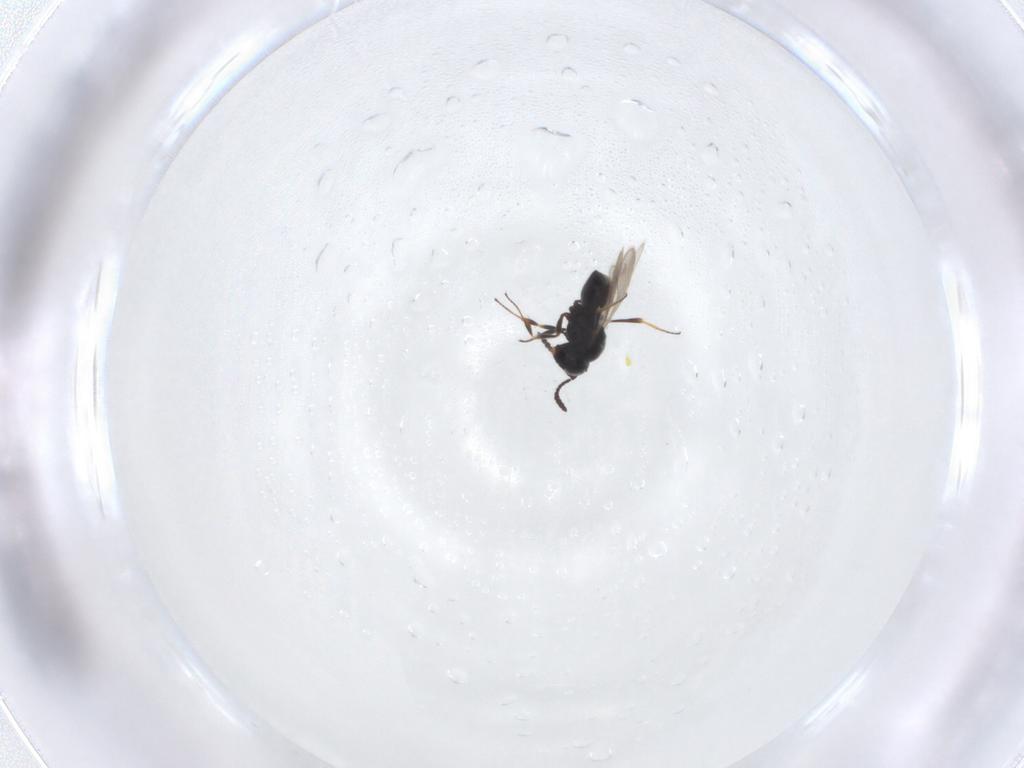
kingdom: Animalia
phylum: Arthropoda
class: Insecta
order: Hymenoptera
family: Scelionidae
